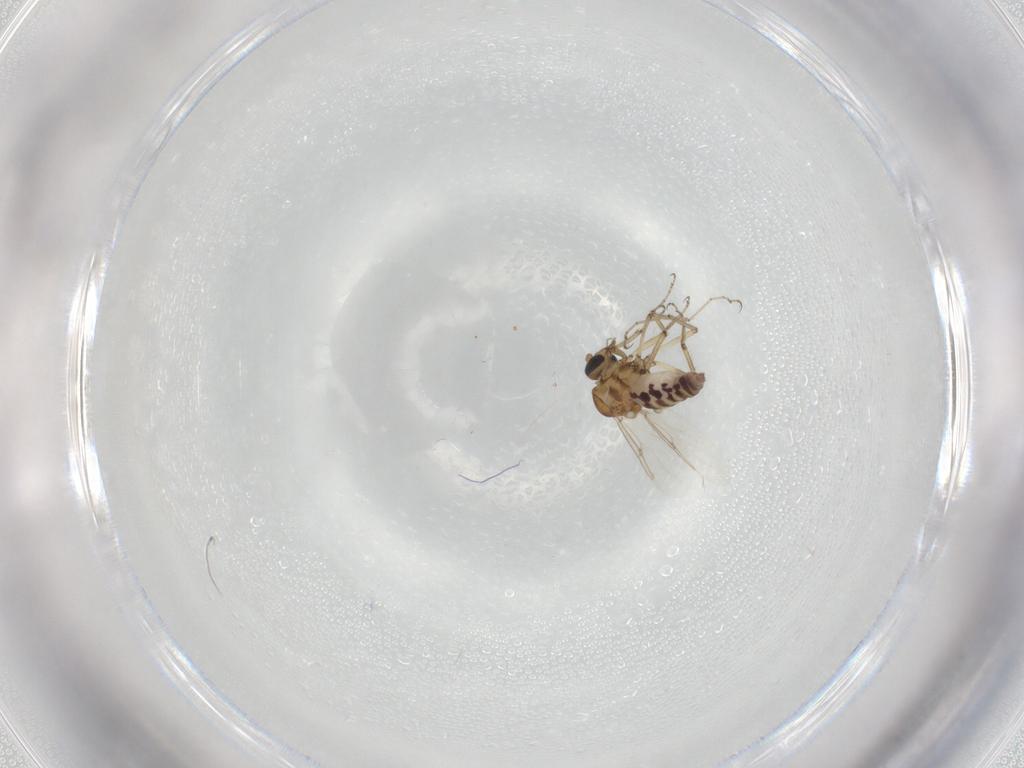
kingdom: Animalia
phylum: Arthropoda
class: Insecta
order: Diptera
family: Ceratopogonidae
